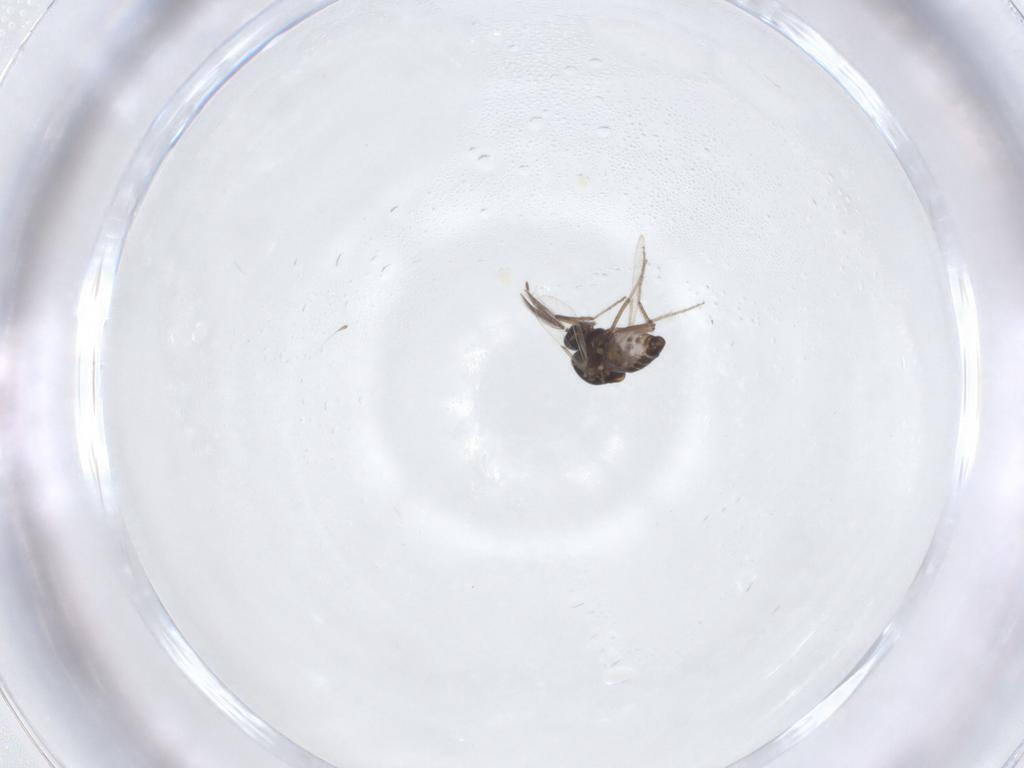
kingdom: Animalia
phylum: Arthropoda
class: Insecta
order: Diptera
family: Ceratopogonidae
